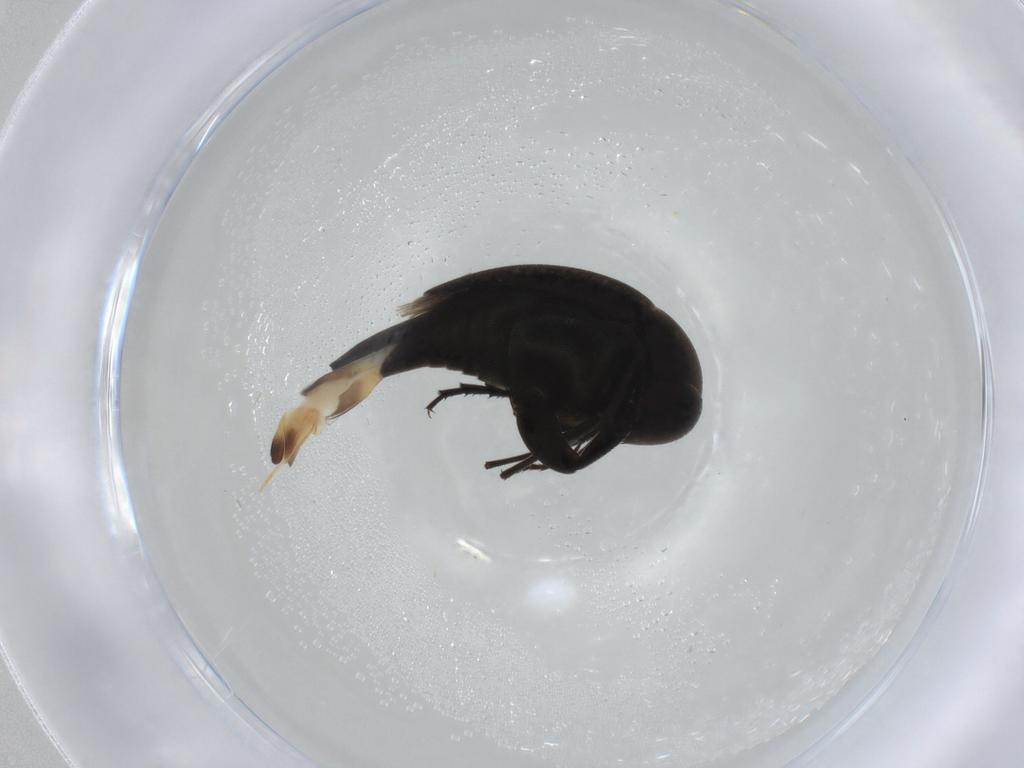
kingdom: Animalia
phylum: Arthropoda
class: Insecta
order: Coleoptera
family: Mordellidae
